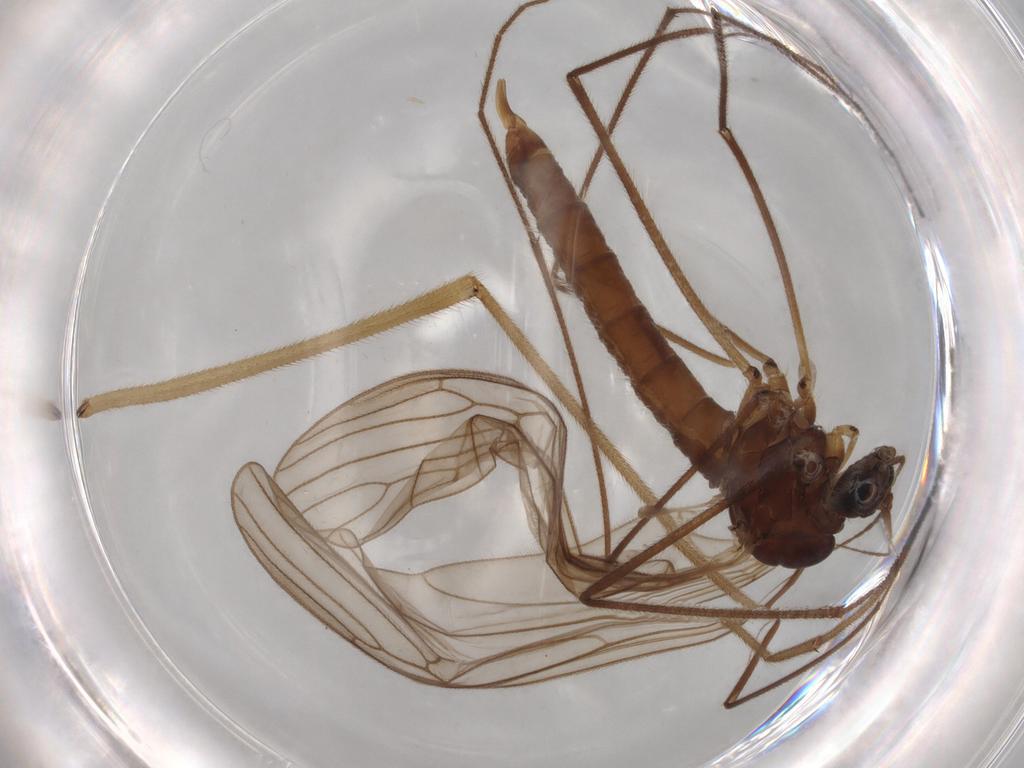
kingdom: Animalia
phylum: Arthropoda
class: Insecta
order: Diptera
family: Trichoceridae
